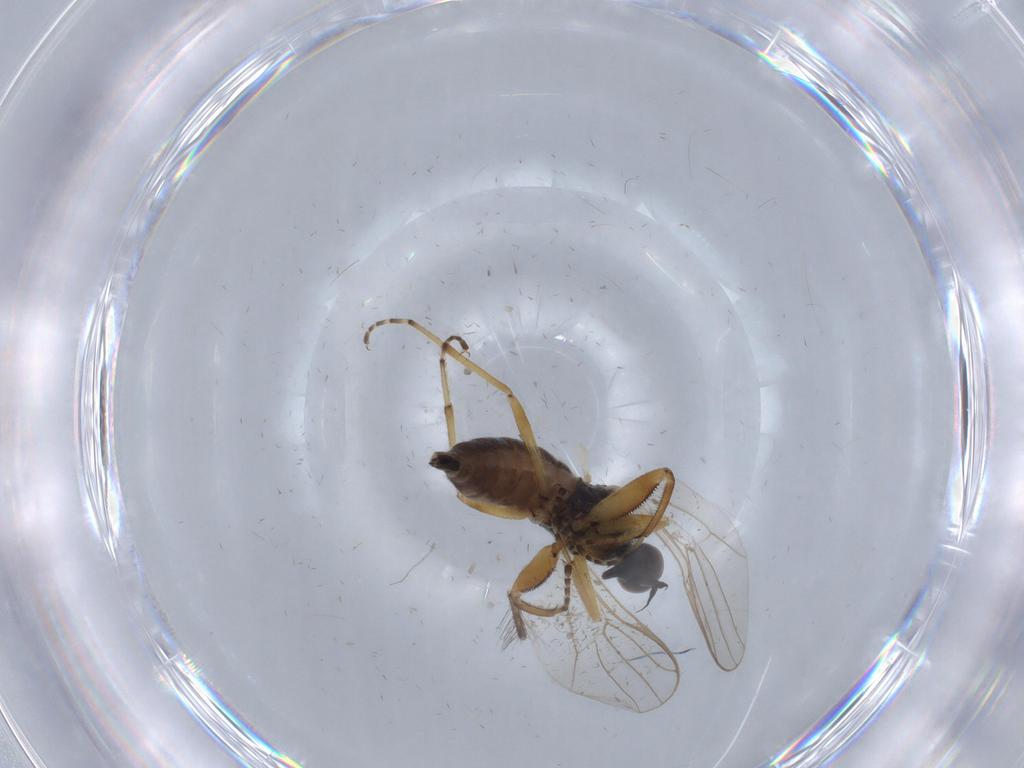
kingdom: Animalia
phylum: Arthropoda
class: Insecta
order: Diptera
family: Hybotidae
